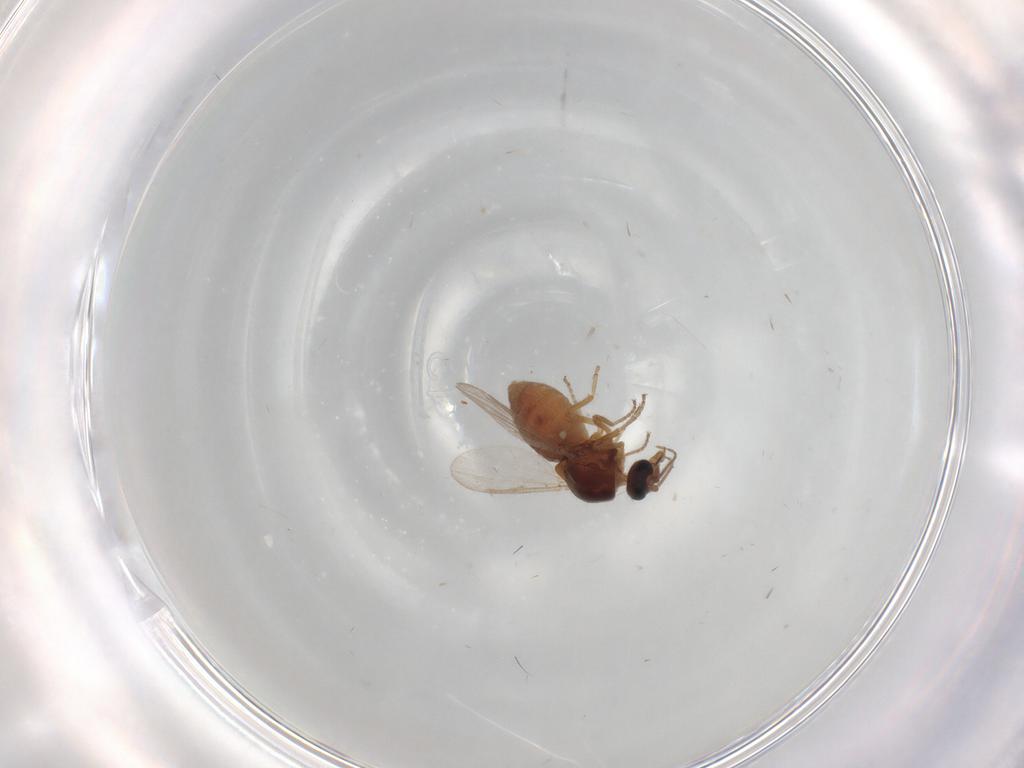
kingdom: Animalia
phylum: Arthropoda
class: Insecta
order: Diptera
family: Ceratopogonidae
